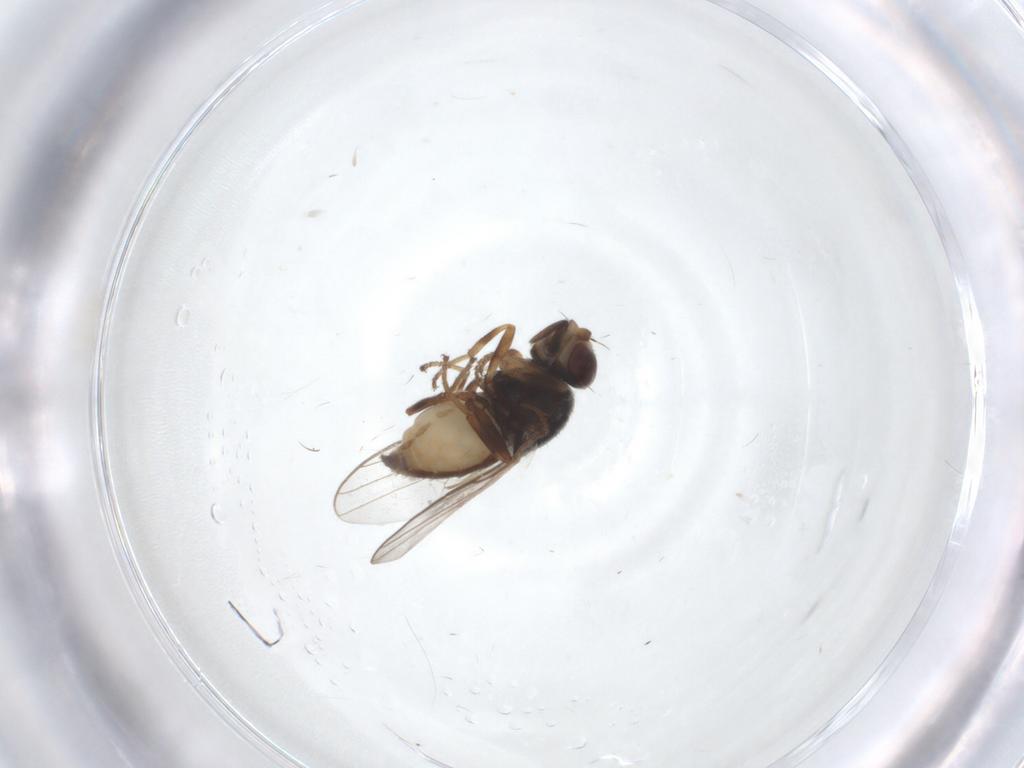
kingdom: Animalia
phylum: Arthropoda
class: Insecta
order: Diptera
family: Chloropidae
